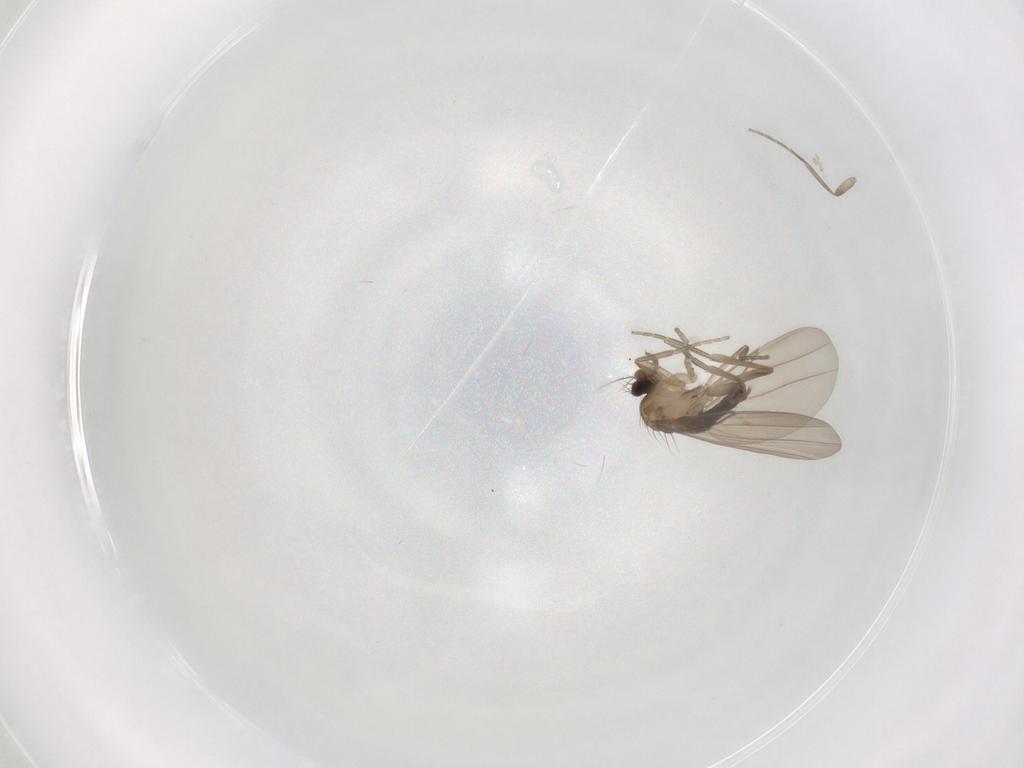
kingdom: Animalia
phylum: Arthropoda
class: Insecta
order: Diptera
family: Phoridae
